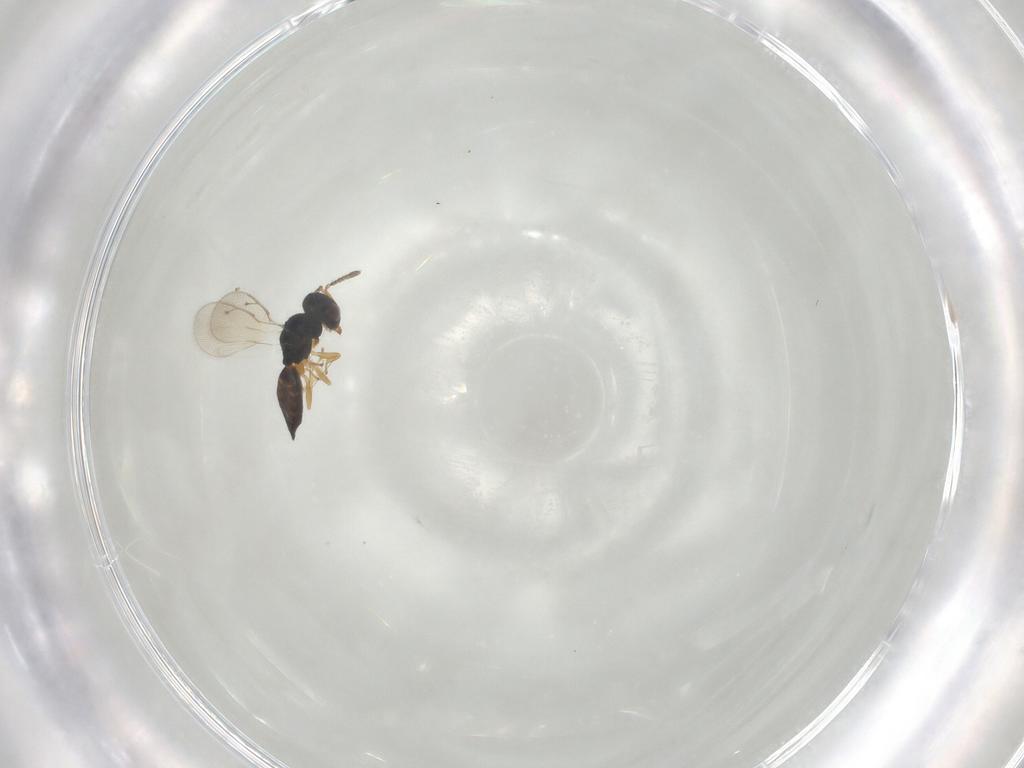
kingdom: Animalia
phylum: Arthropoda
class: Insecta
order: Hymenoptera
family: Pteromalidae
